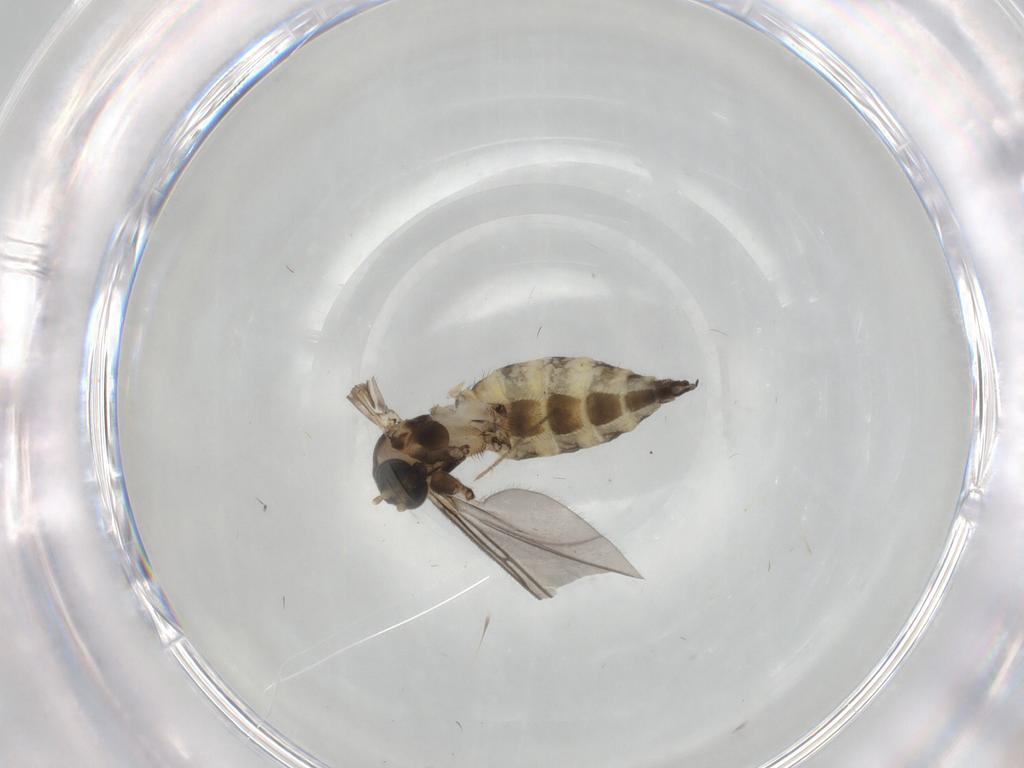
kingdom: Animalia
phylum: Arthropoda
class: Insecta
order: Diptera
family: Sciaridae
